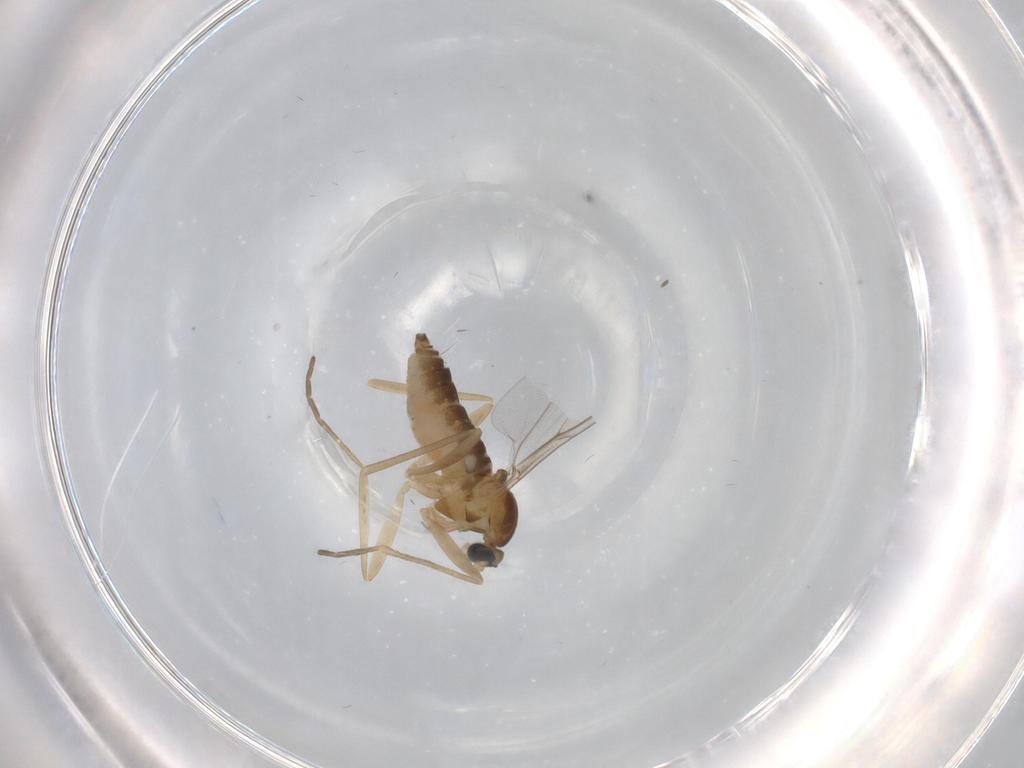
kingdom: Animalia
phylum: Arthropoda
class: Insecta
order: Diptera
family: Cecidomyiidae
